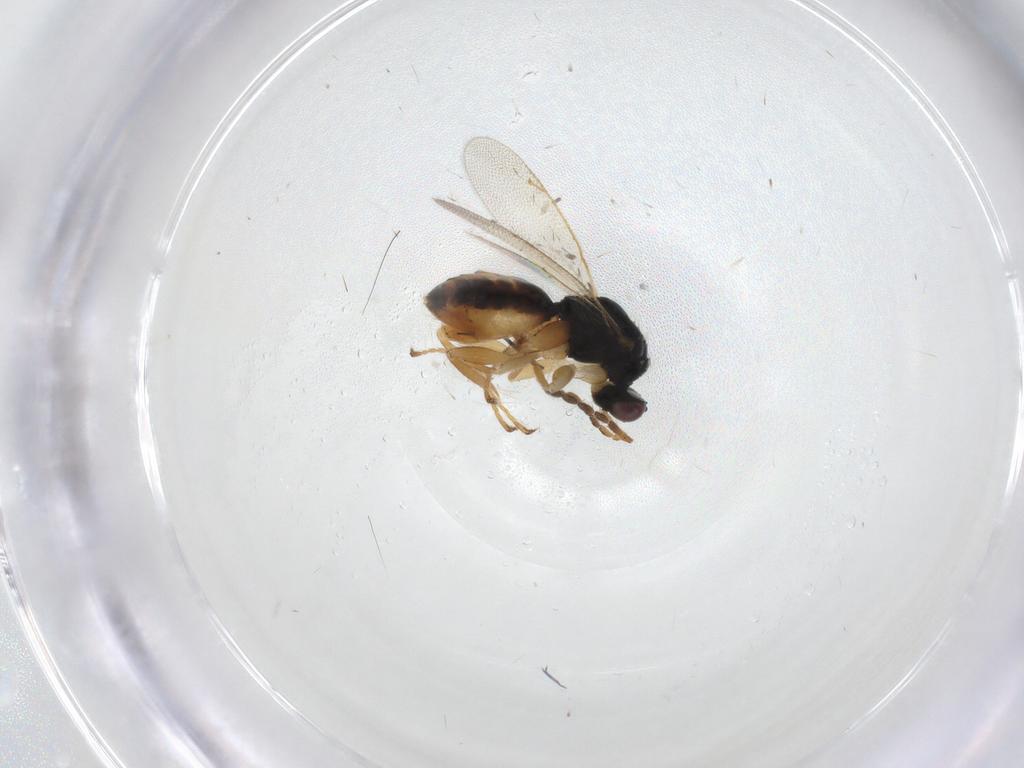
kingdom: Animalia
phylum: Arthropoda
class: Insecta
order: Hymenoptera
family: Eulophidae
